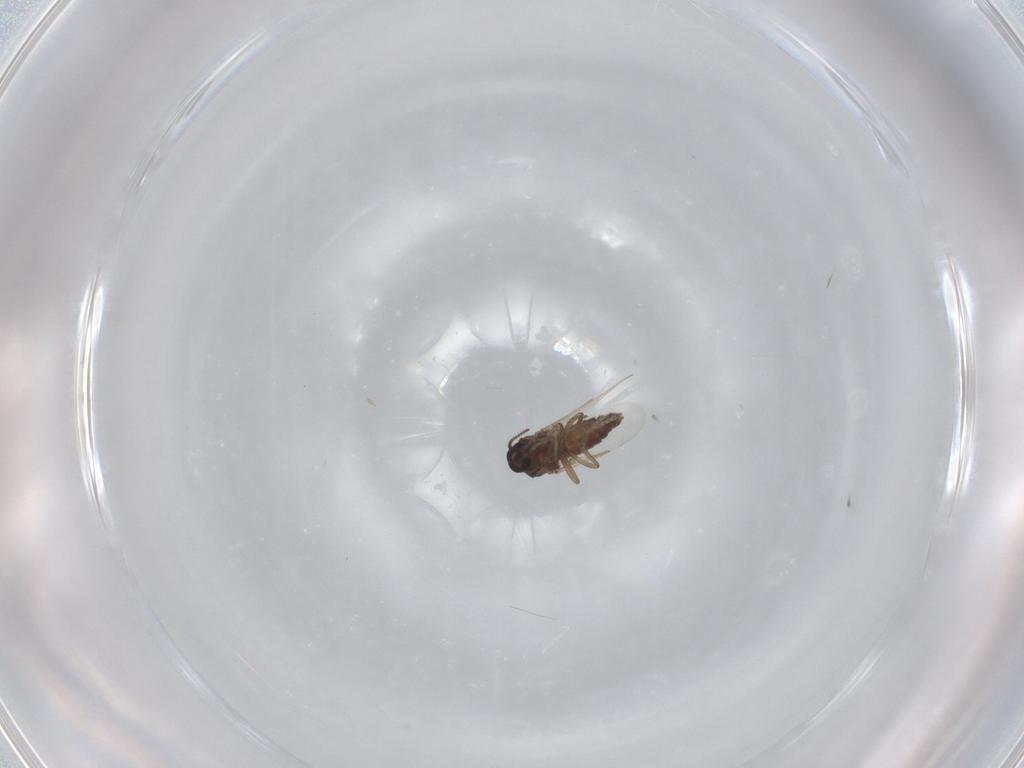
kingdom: Animalia
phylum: Arthropoda
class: Insecta
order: Diptera
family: Ceratopogonidae
